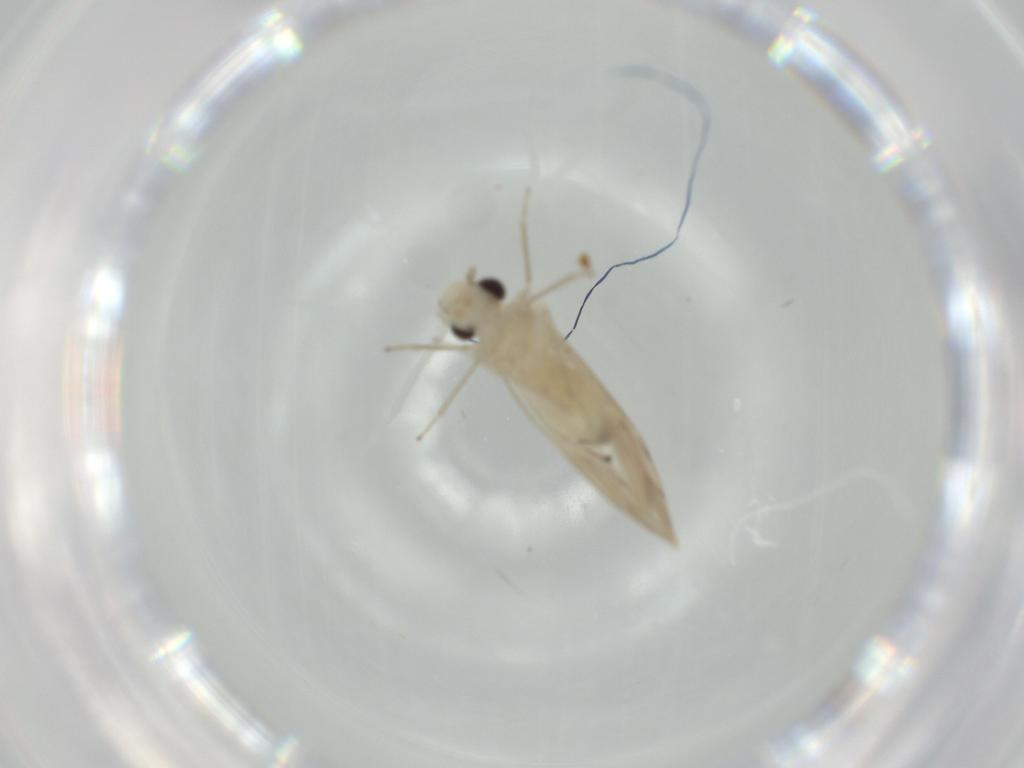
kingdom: Animalia
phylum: Arthropoda
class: Insecta
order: Psocodea
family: Caeciliusidae
